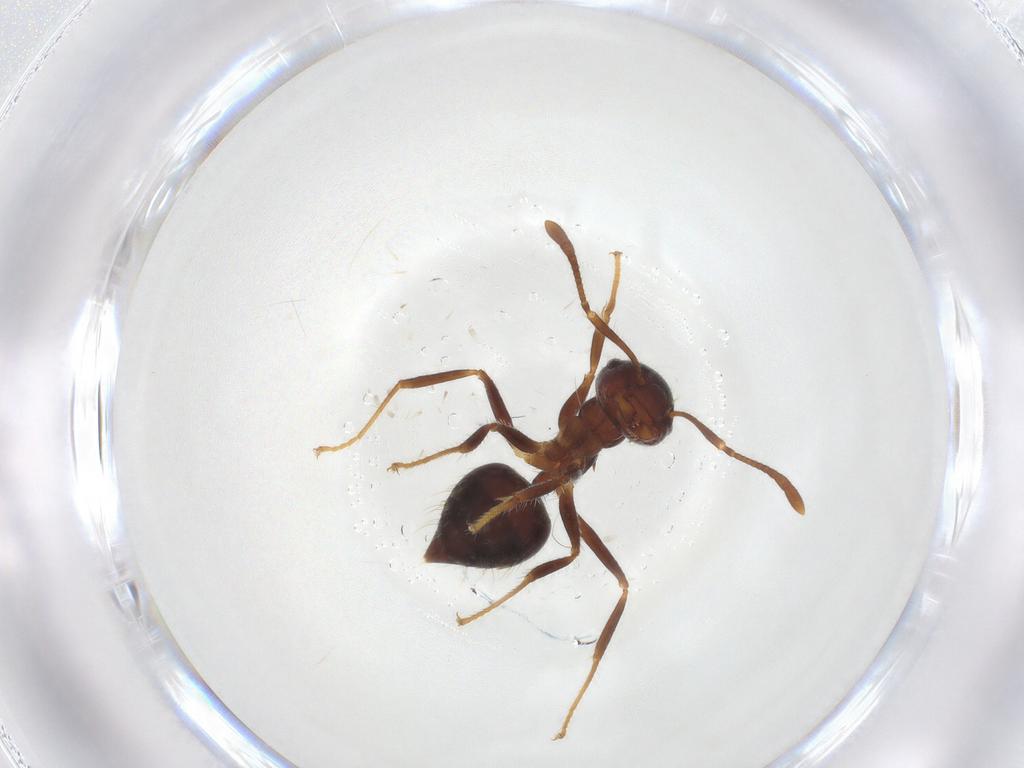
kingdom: Animalia
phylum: Arthropoda
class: Insecta
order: Hymenoptera
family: Formicidae
